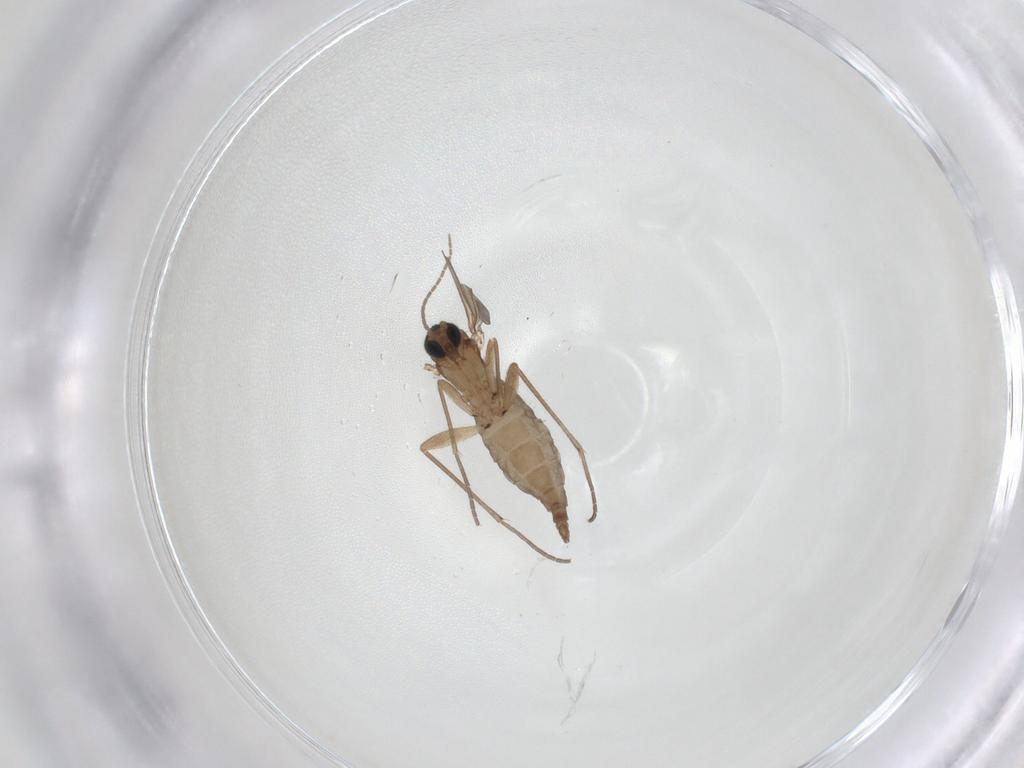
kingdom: Animalia
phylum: Arthropoda
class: Insecta
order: Diptera
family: Sciaridae
